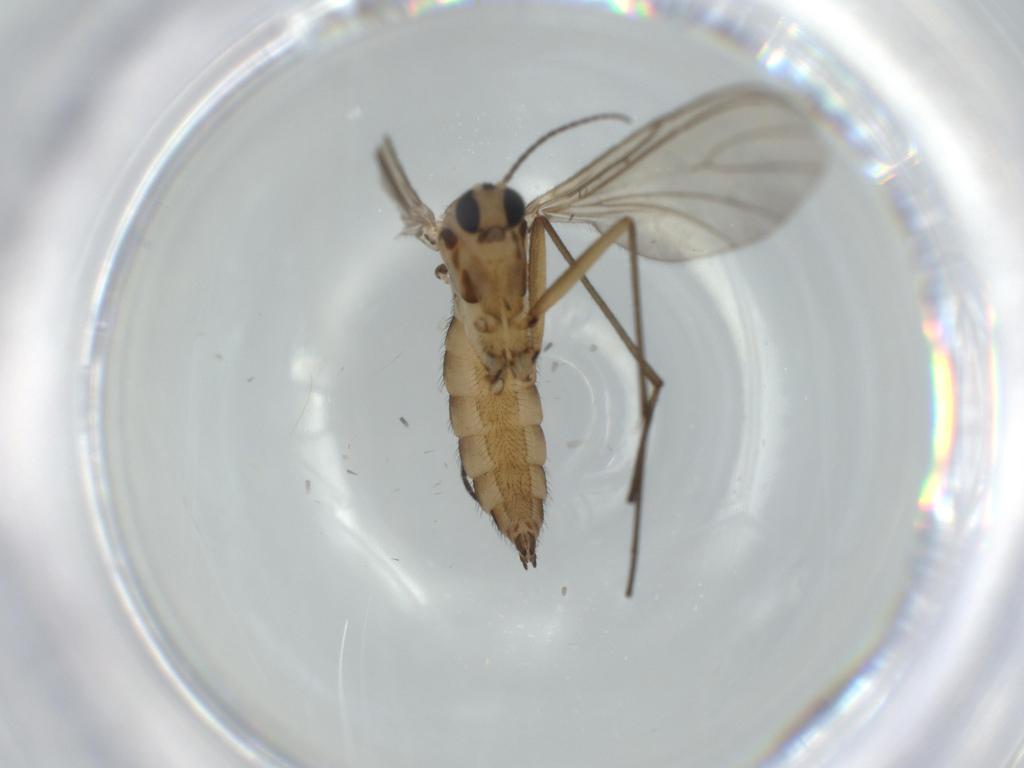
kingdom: Animalia
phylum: Arthropoda
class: Insecta
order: Diptera
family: Sciaridae
